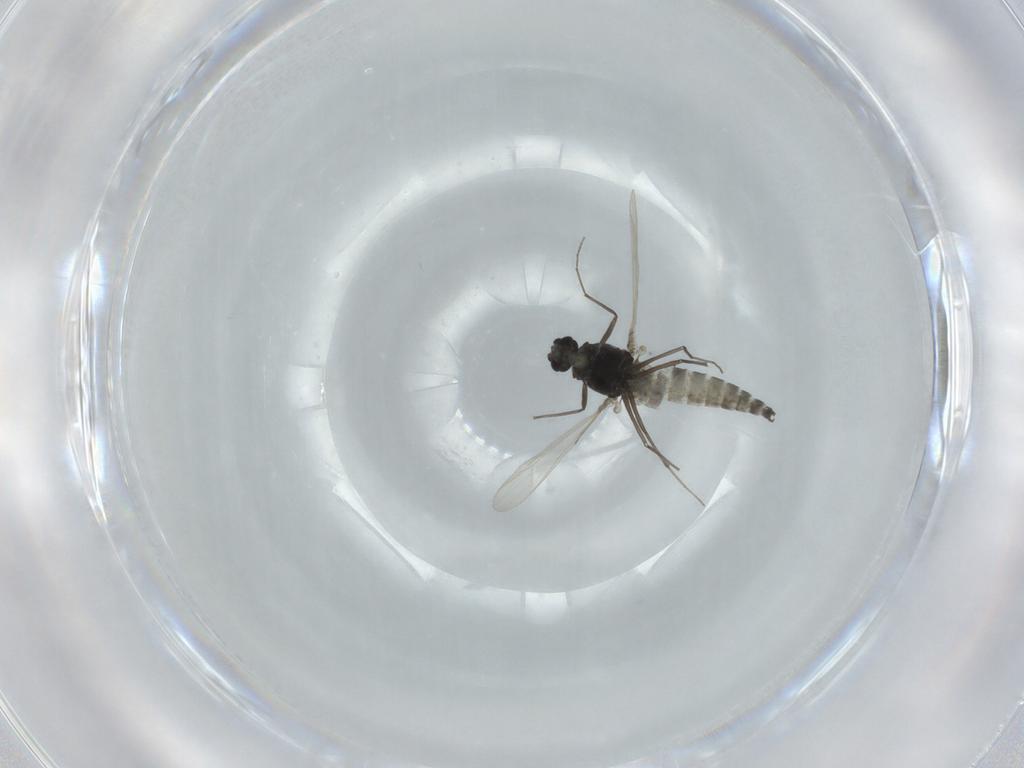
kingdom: Animalia
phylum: Arthropoda
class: Insecta
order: Diptera
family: Chironomidae
